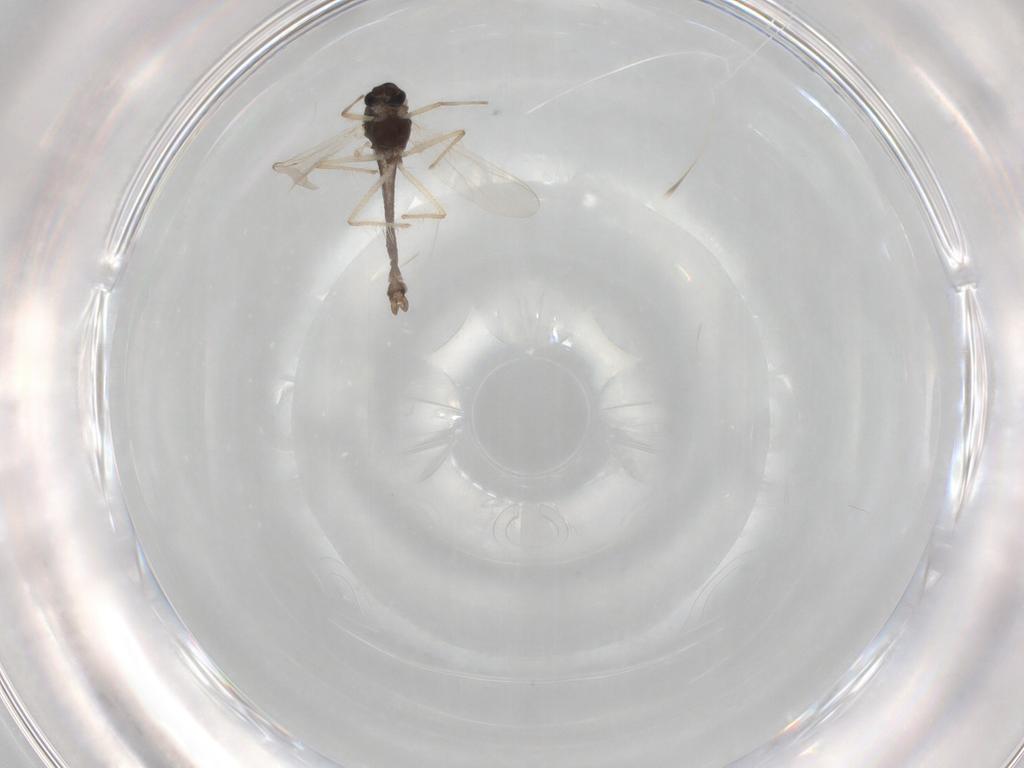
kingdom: Animalia
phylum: Arthropoda
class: Insecta
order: Diptera
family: Chironomidae
